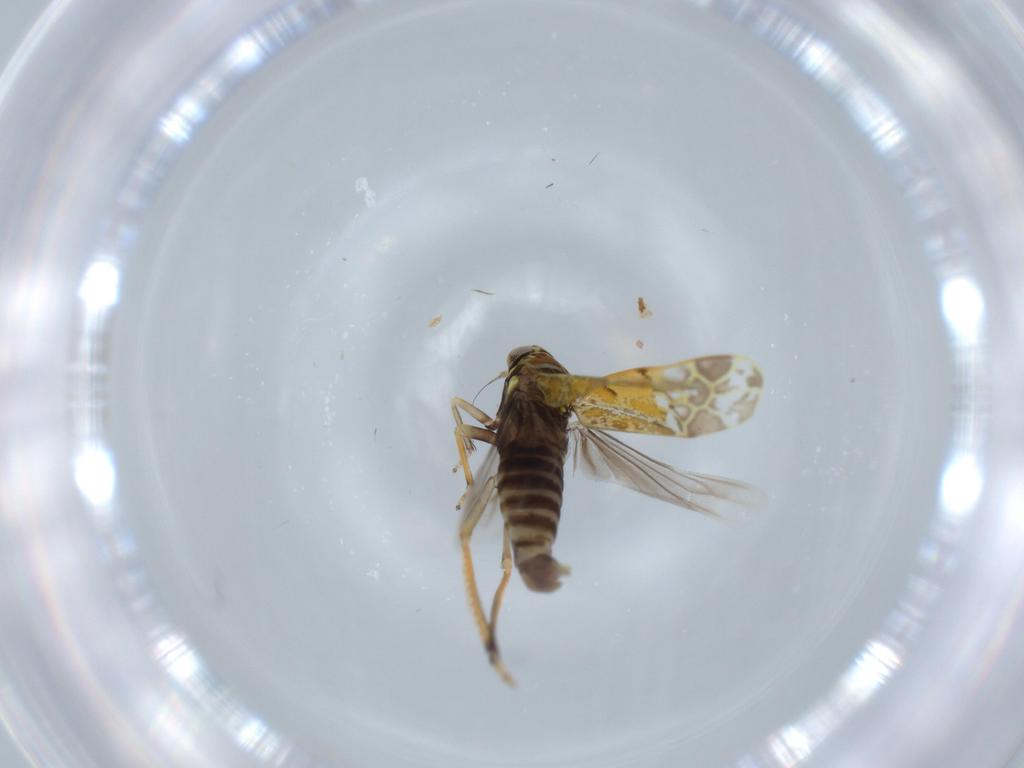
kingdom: Animalia
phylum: Arthropoda
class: Insecta
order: Hemiptera
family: Cicadellidae
